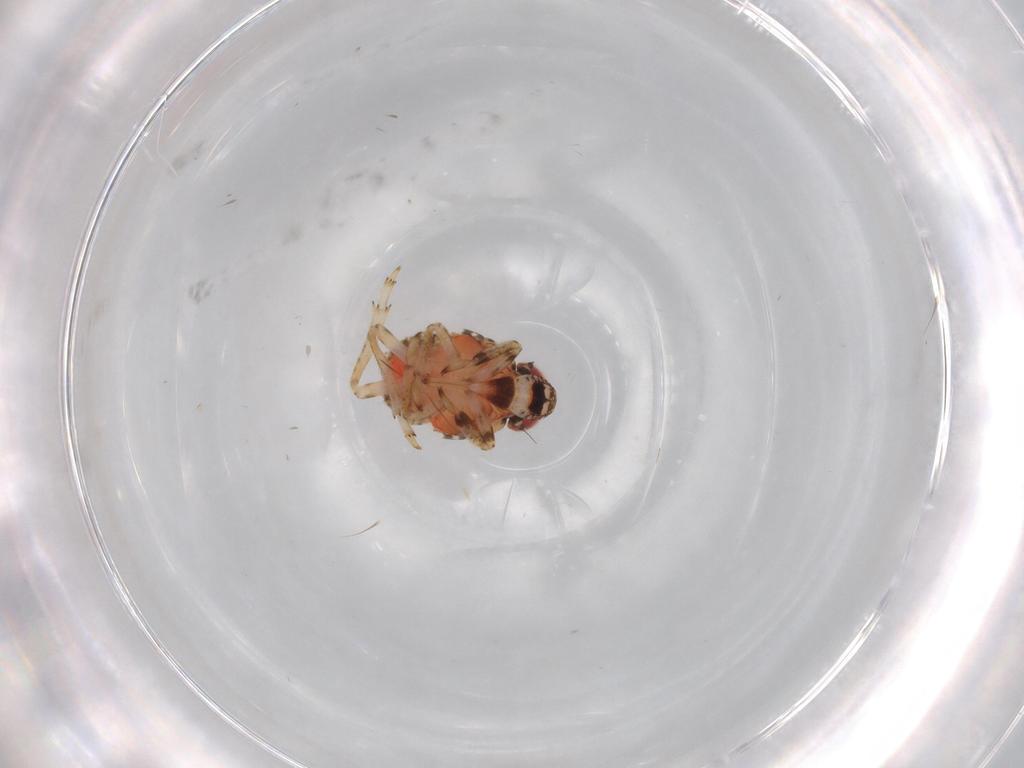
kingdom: Animalia
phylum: Arthropoda
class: Insecta
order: Hemiptera
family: Issidae
